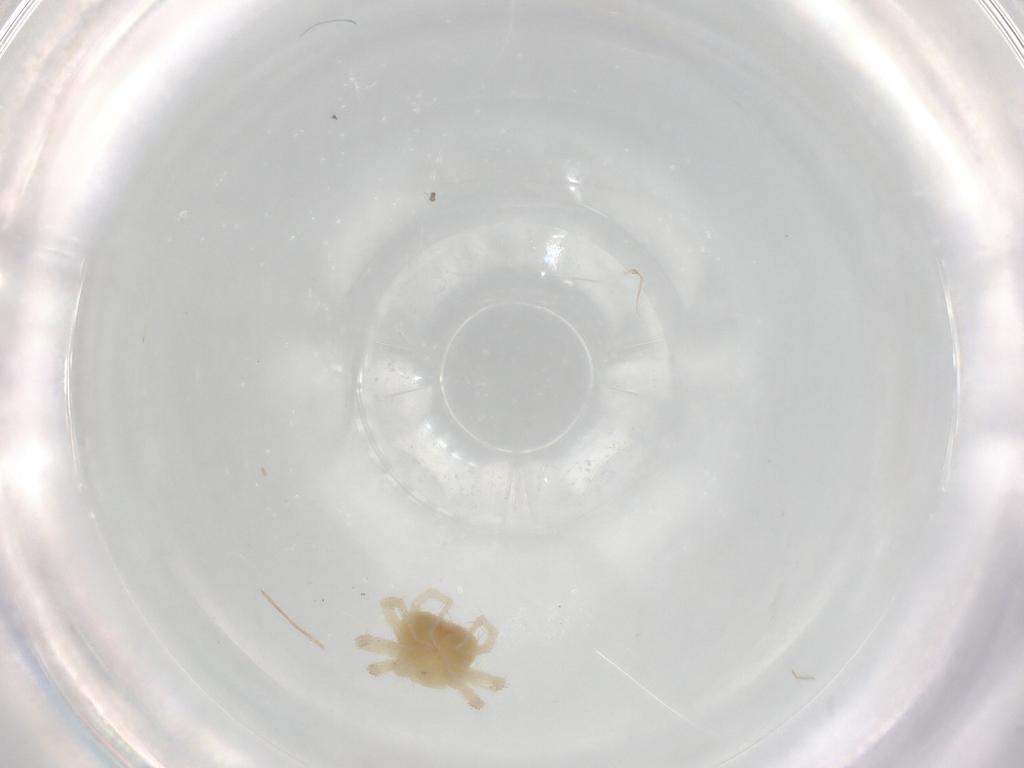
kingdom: Animalia
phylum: Arthropoda
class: Arachnida
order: Trombidiformes
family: Anystidae
